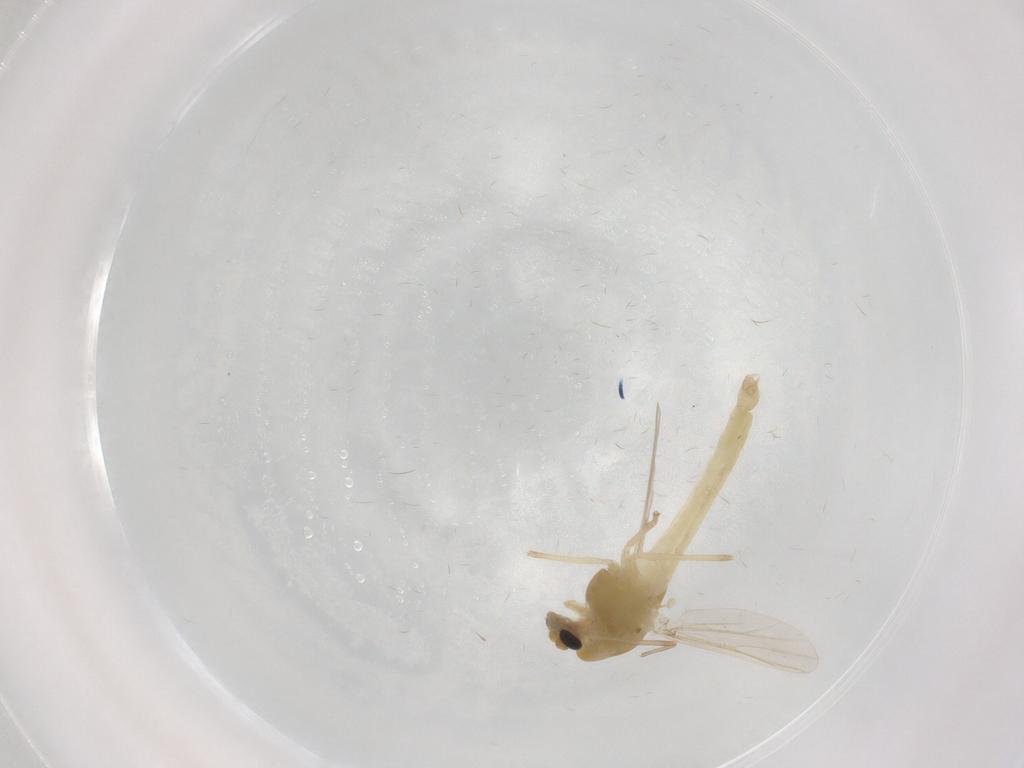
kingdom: Animalia
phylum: Arthropoda
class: Insecta
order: Diptera
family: Chironomidae
